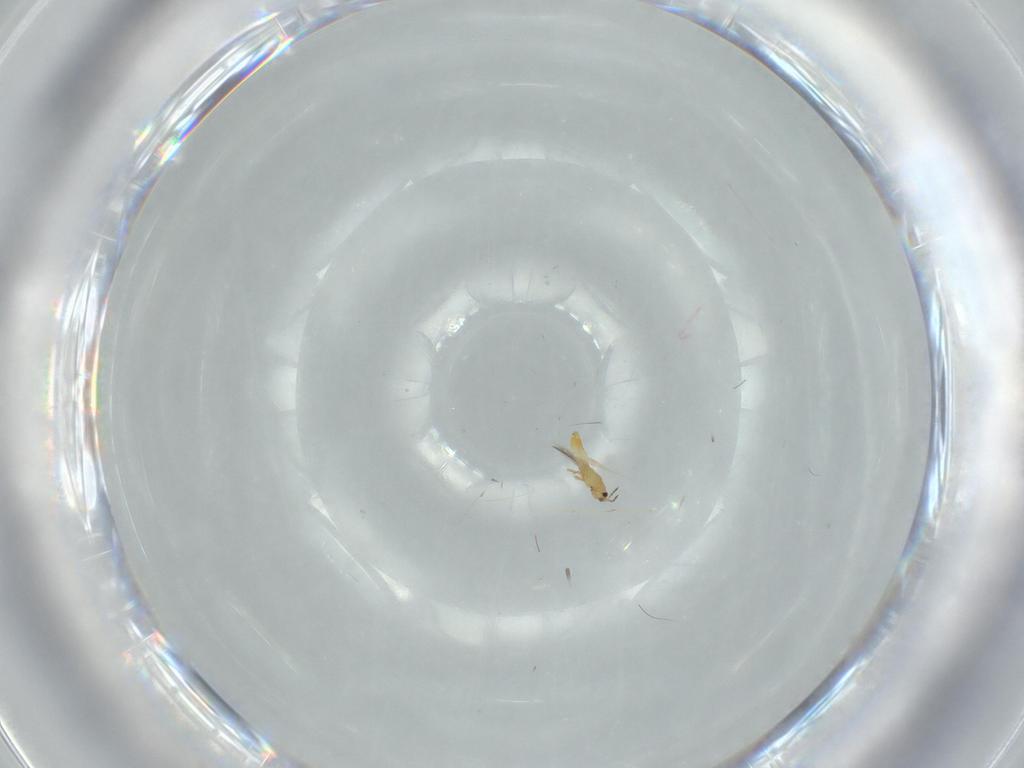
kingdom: Animalia
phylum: Arthropoda
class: Insecta
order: Thysanoptera
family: Thripidae
